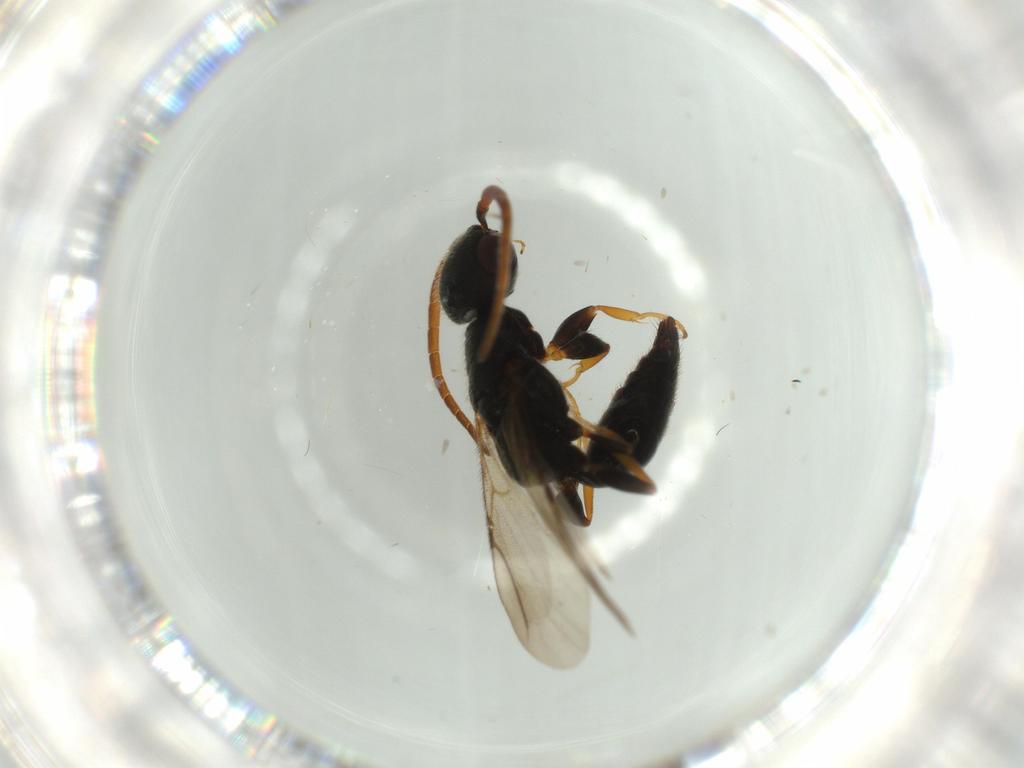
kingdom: Animalia
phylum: Arthropoda
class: Insecta
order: Hymenoptera
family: Bethylidae
